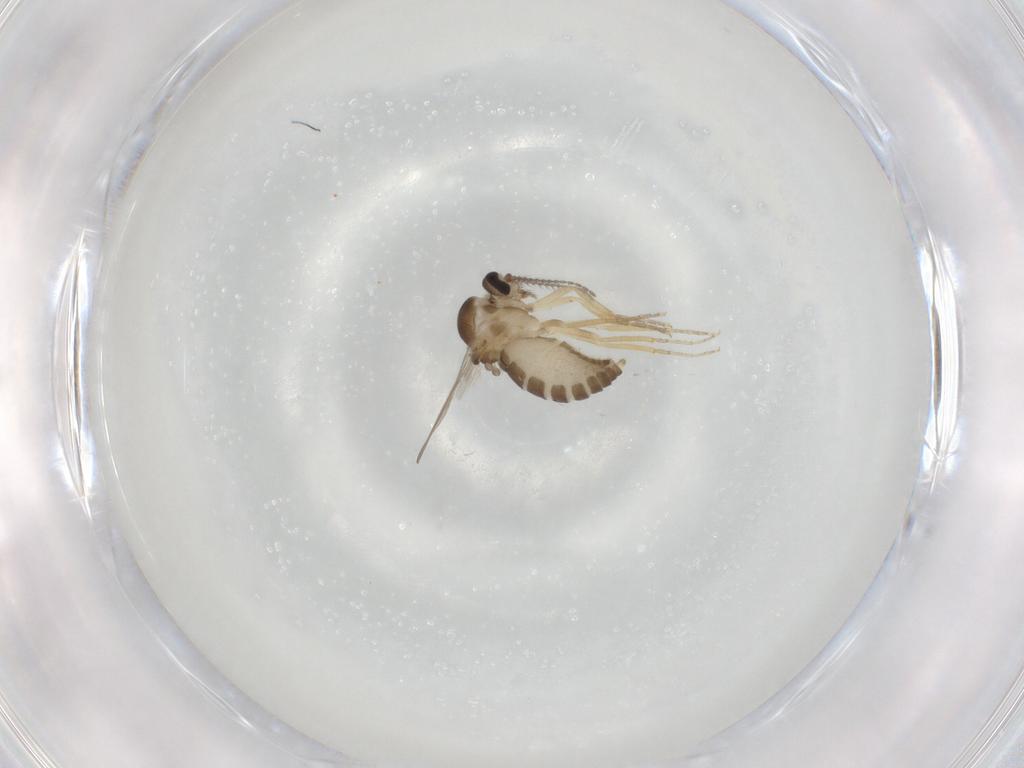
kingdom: Animalia
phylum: Arthropoda
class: Insecta
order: Diptera
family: Ceratopogonidae
